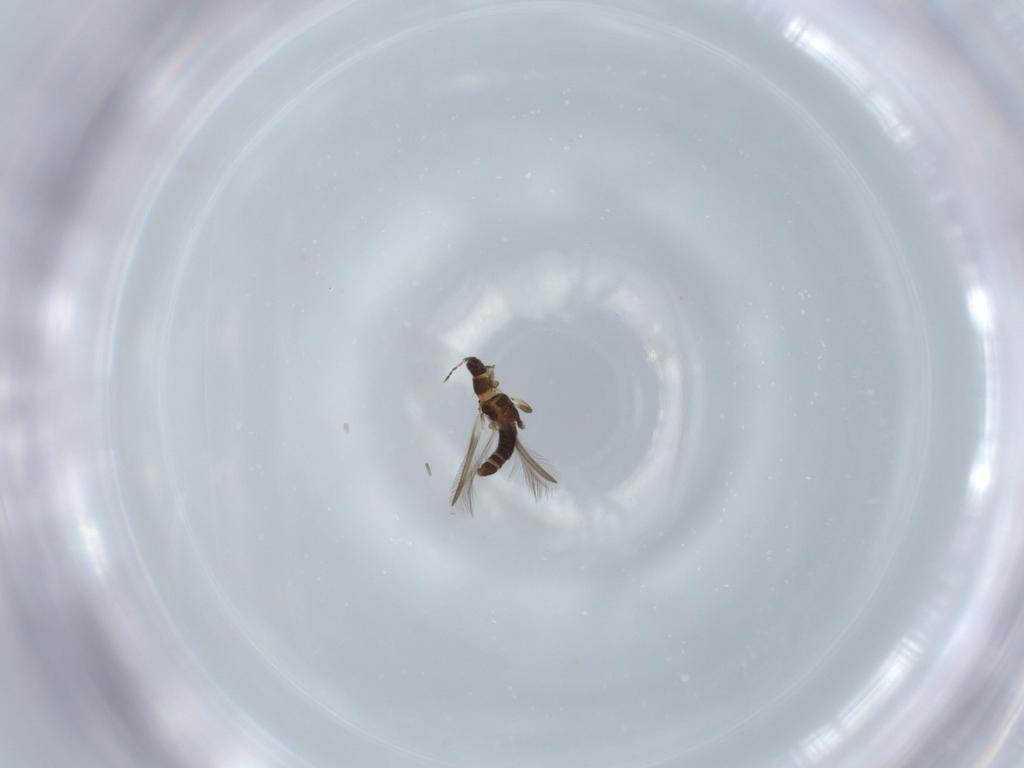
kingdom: Animalia
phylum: Arthropoda
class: Insecta
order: Thysanoptera
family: Thripidae
